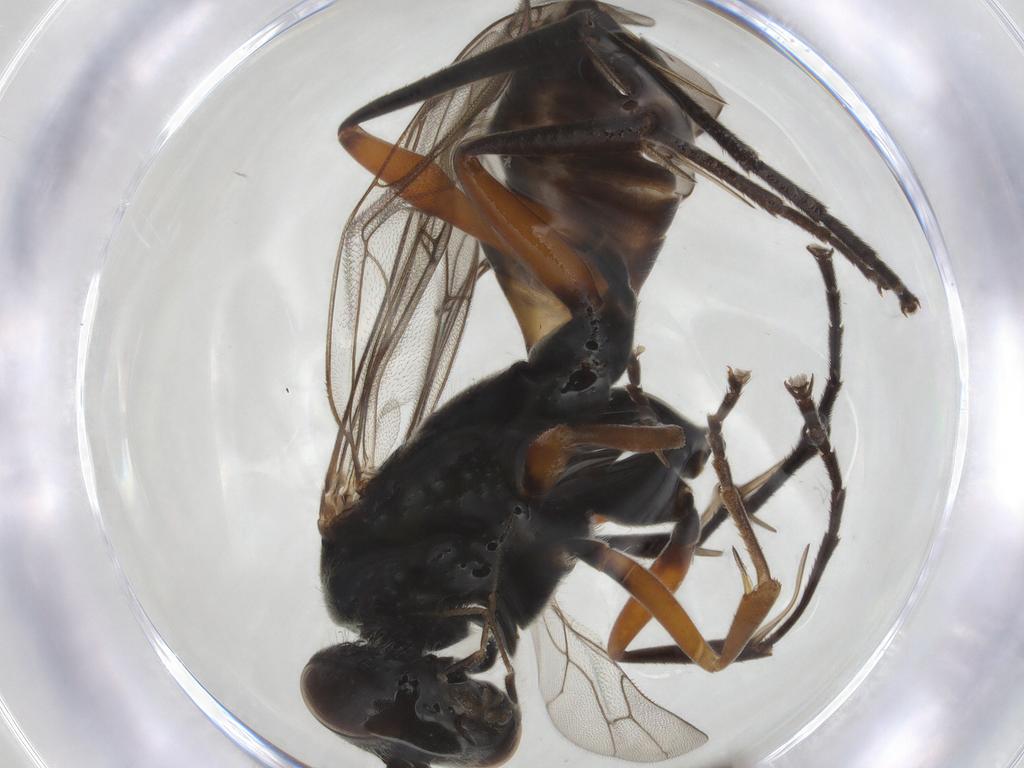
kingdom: Animalia
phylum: Arthropoda
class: Insecta
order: Hymenoptera
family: Pompilidae
